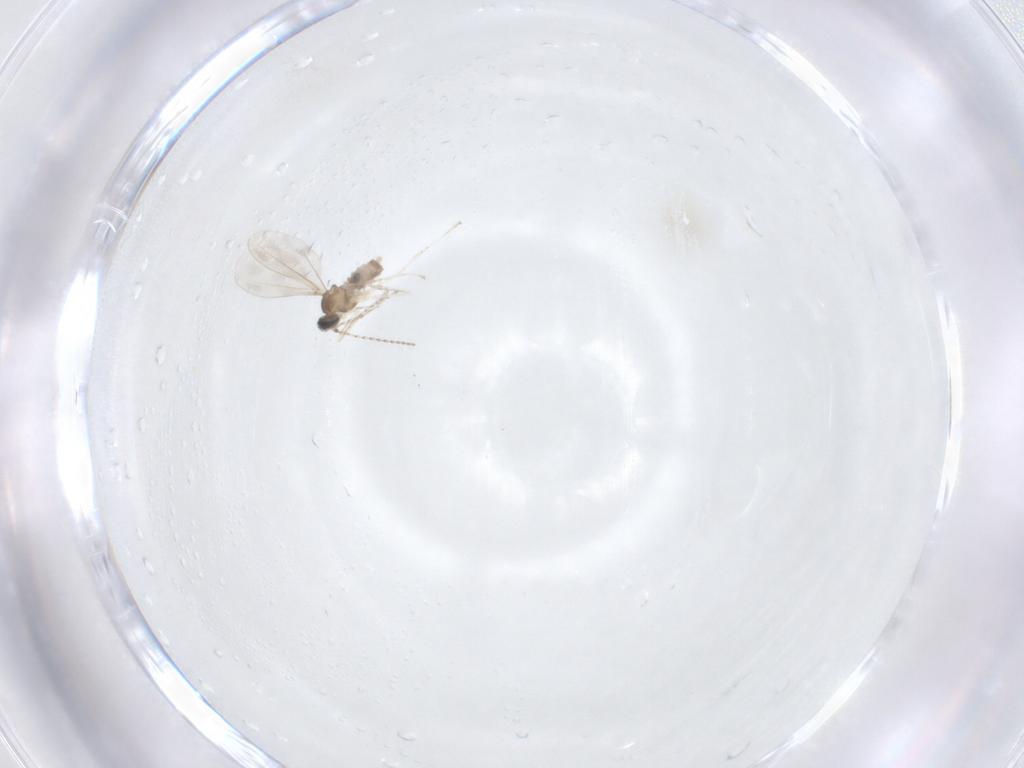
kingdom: Animalia
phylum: Arthropoda
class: Insecta
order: Diptera
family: Cecidomyiidae
